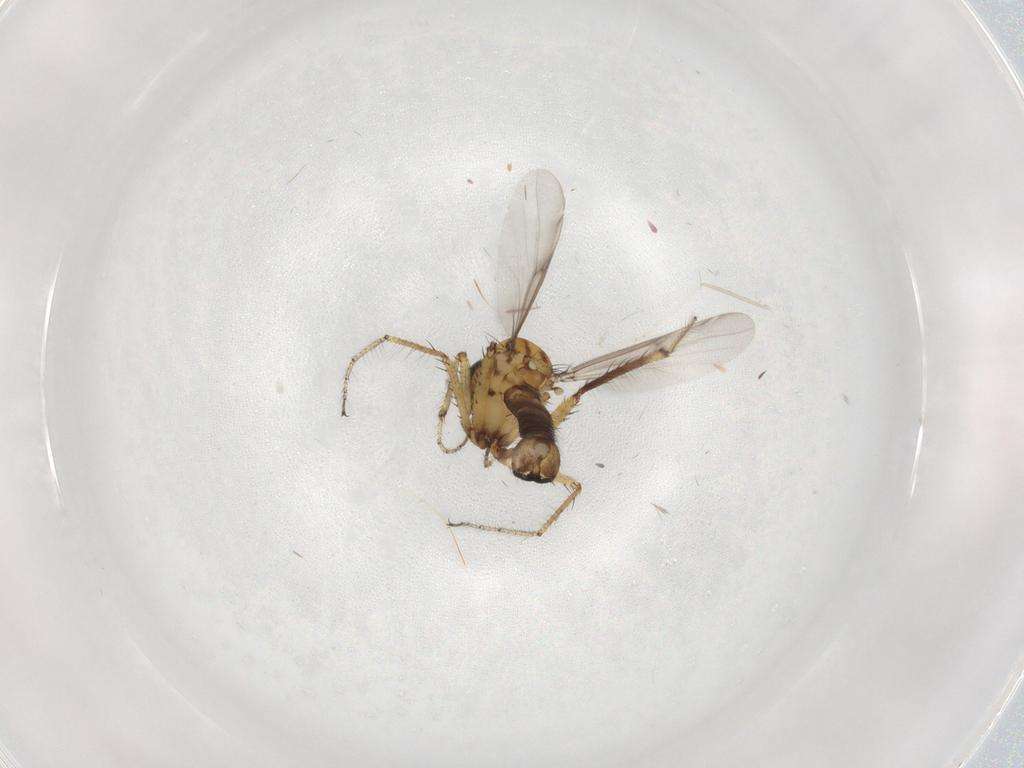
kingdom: Animalia
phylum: Arthropoda
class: Insecta
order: Diptera
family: Ceratopogonidae
